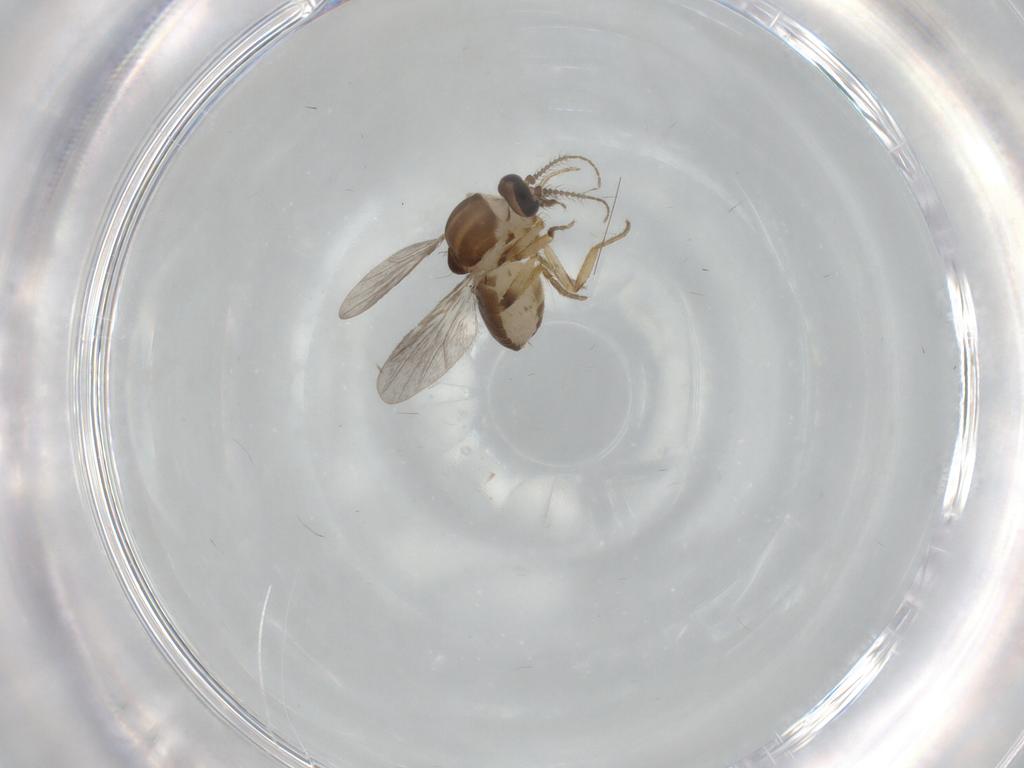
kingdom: Animalia
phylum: Arthropoda
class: Insecta
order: Diptera
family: Ceratopogonidae
